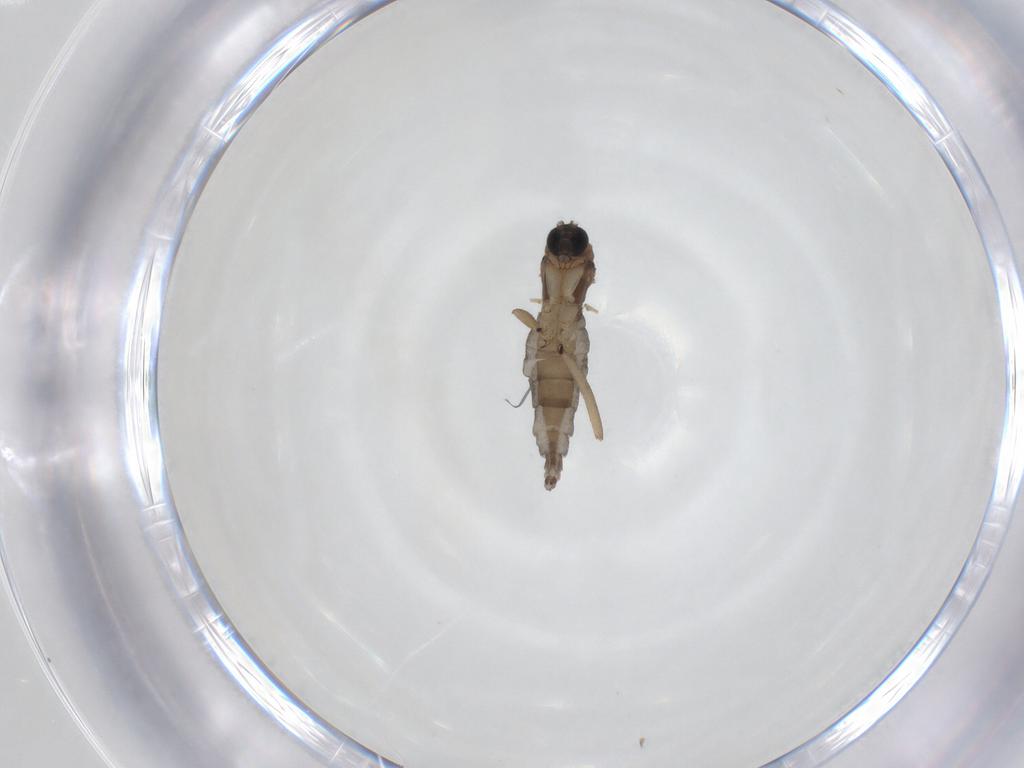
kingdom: Animalia
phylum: Arthropoda
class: Insecta
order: Diptera
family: Sciaridae
